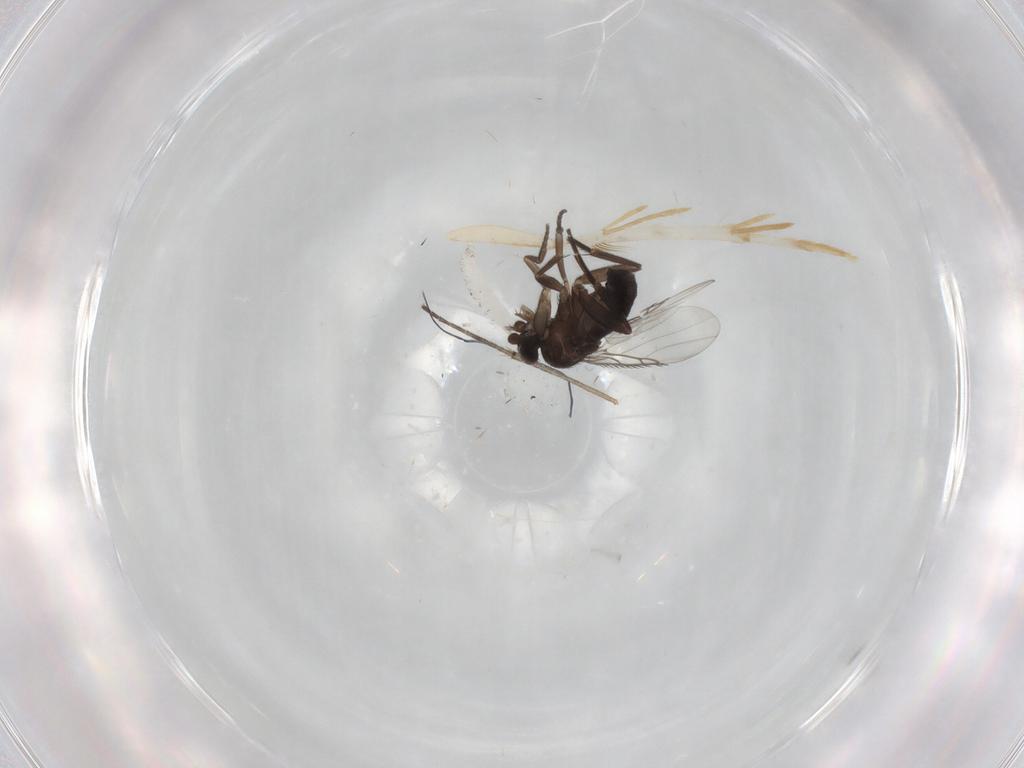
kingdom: Animalia
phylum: Arthropoda
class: Insecta
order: Diptera
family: Phoridae
